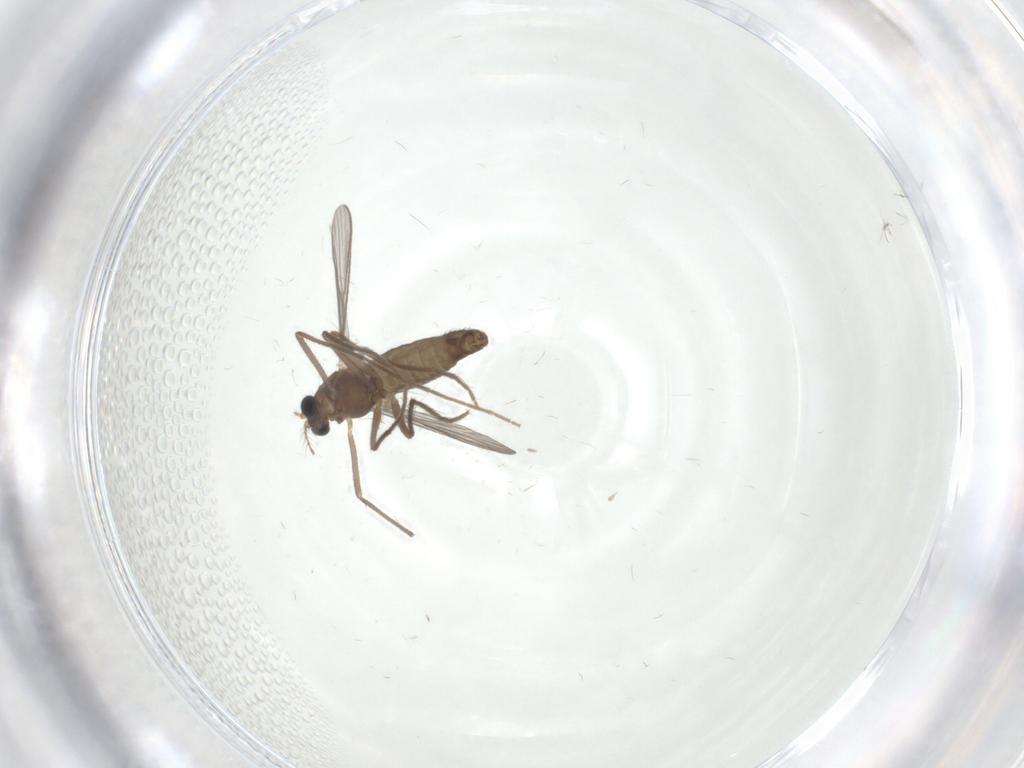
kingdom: Animalia
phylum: Arthropoda
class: Insecta
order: Diptera
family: Chironomidae
